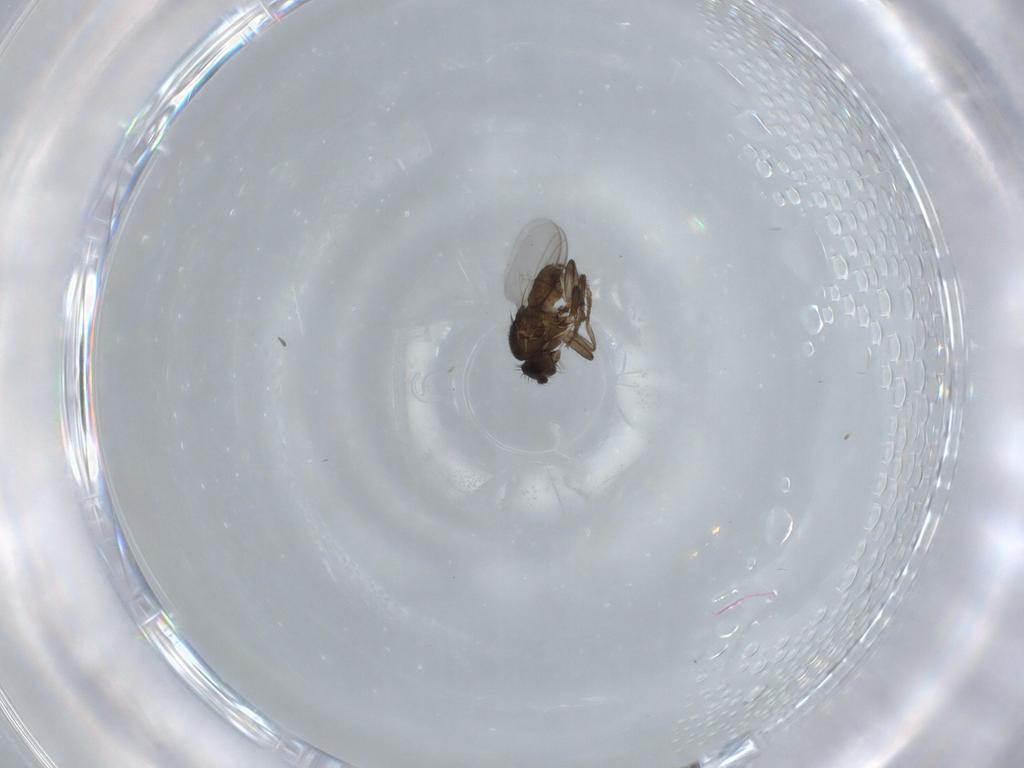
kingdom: Animalia
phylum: Arthropoda
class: Insecta
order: Diptera
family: Sphaeroceridae
